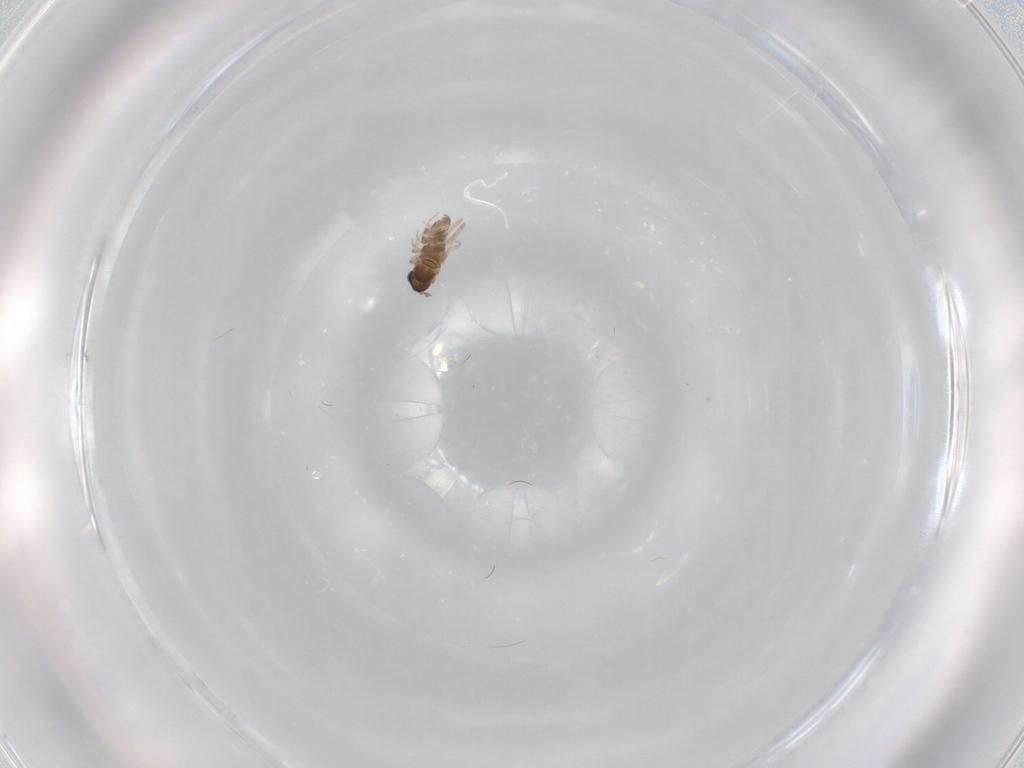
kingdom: Animalia
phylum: Arthropoda
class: Insecta
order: Diptera
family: Cecidomyiidae
